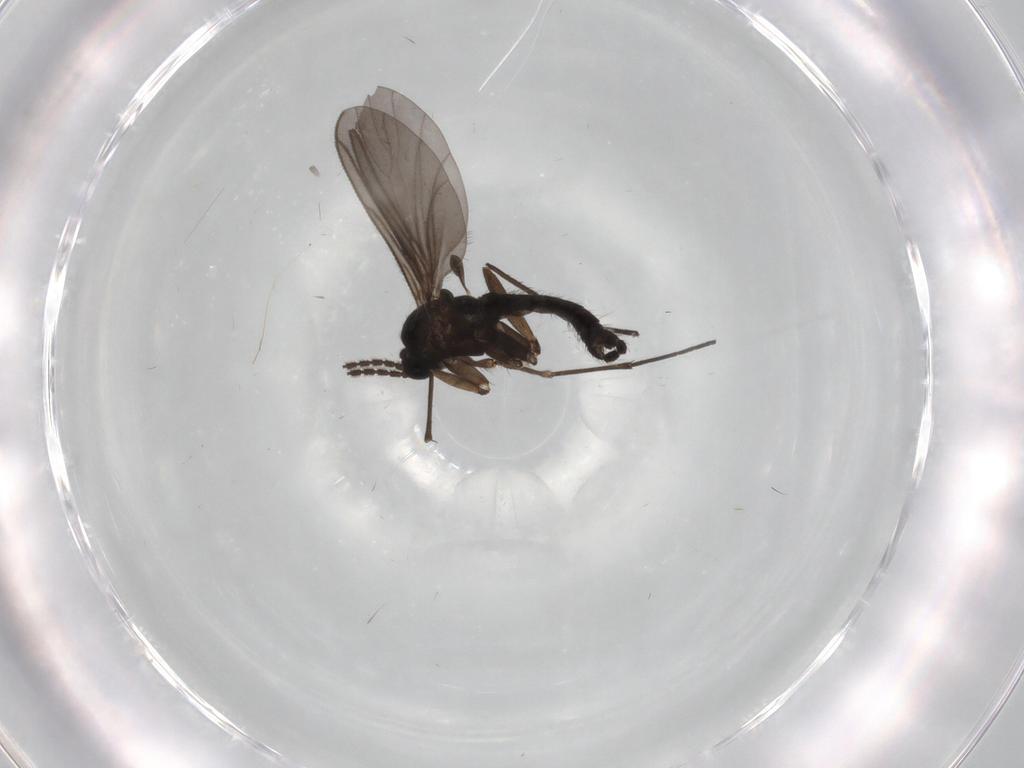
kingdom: Animalia
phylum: Arthropoda
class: Insecta
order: Diptera
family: Sciaridae
